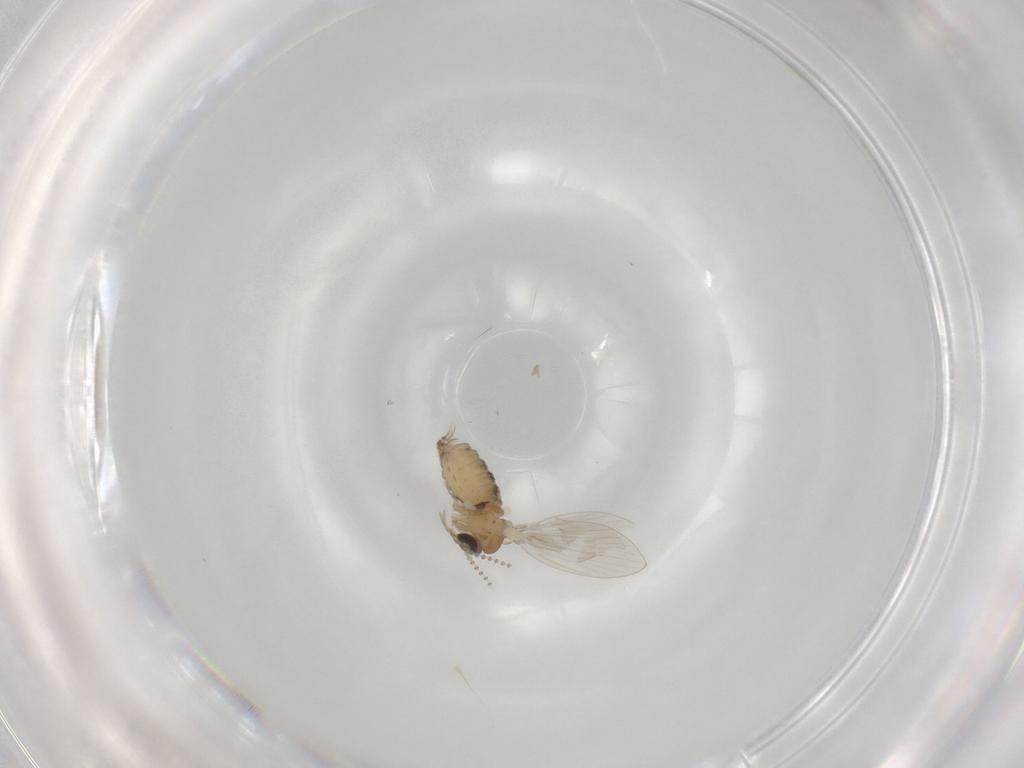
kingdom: Animalia
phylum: Arthropoda
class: Insecta
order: Diptera
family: Psychodidae
